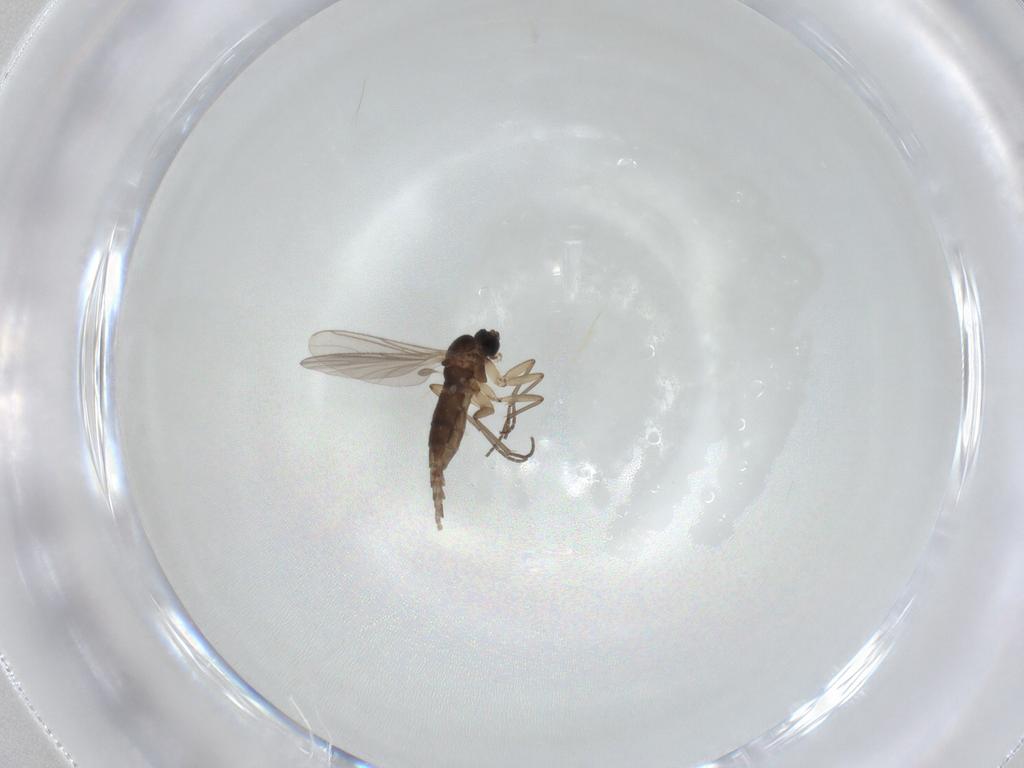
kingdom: Animalia
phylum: Arthropoda
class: Insecta
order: Diptera
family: Sciaridae
